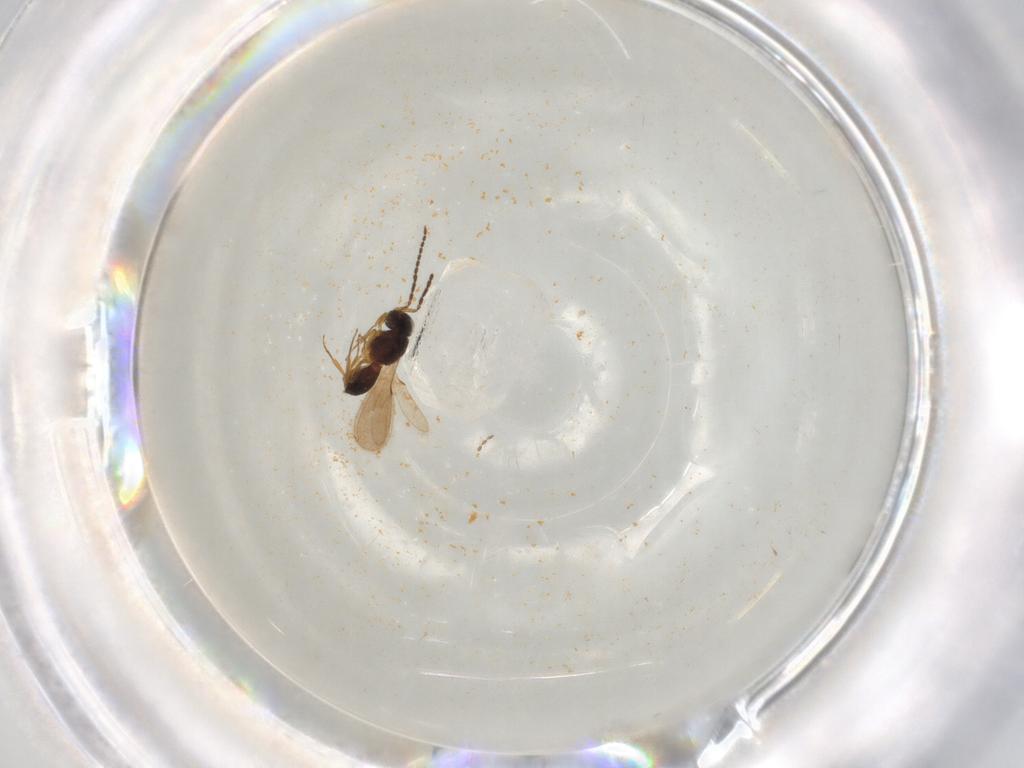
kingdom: Animalia
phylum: Arthropoda
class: Insecta
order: Hymenoptera
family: Scelionidae
